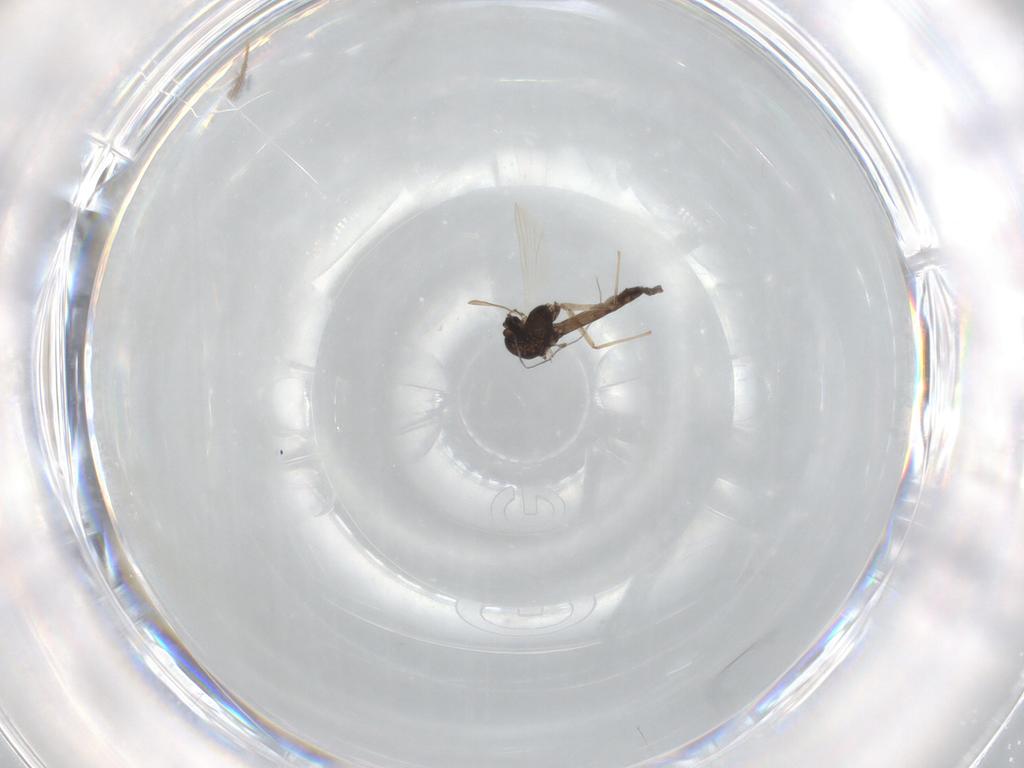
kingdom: Animalia
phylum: Arthropoda
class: Insecta
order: Diptera
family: Chironomidae
